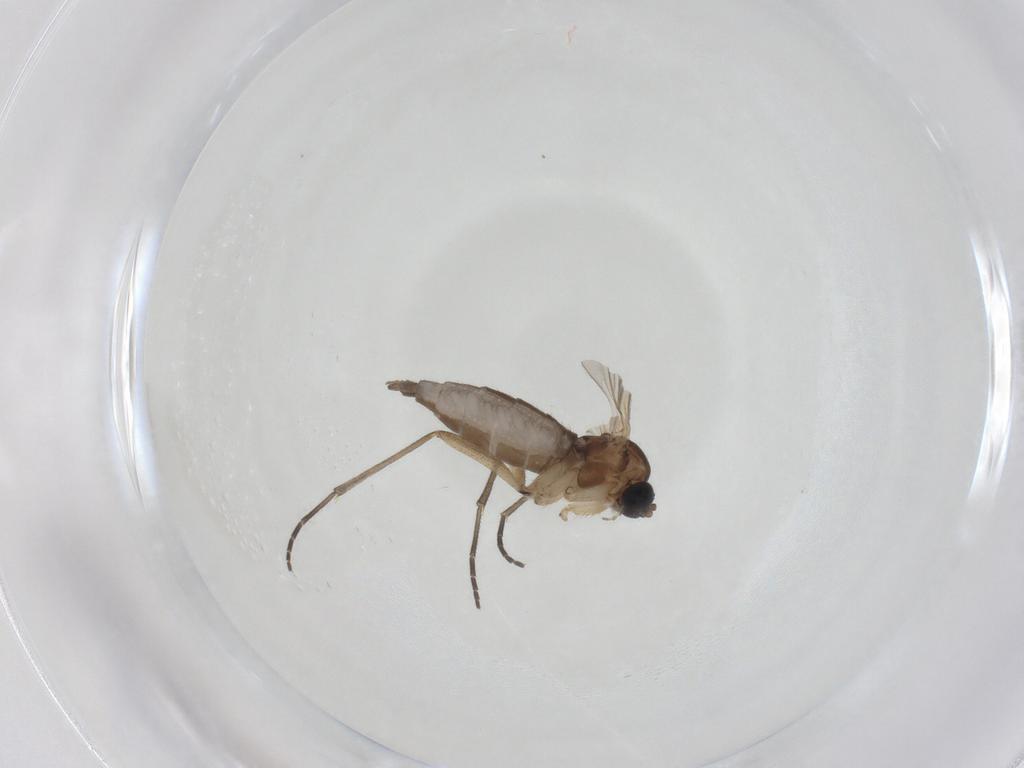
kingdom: Animalia
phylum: Arthropoda
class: Insecta
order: Diptera
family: Sciaridae
